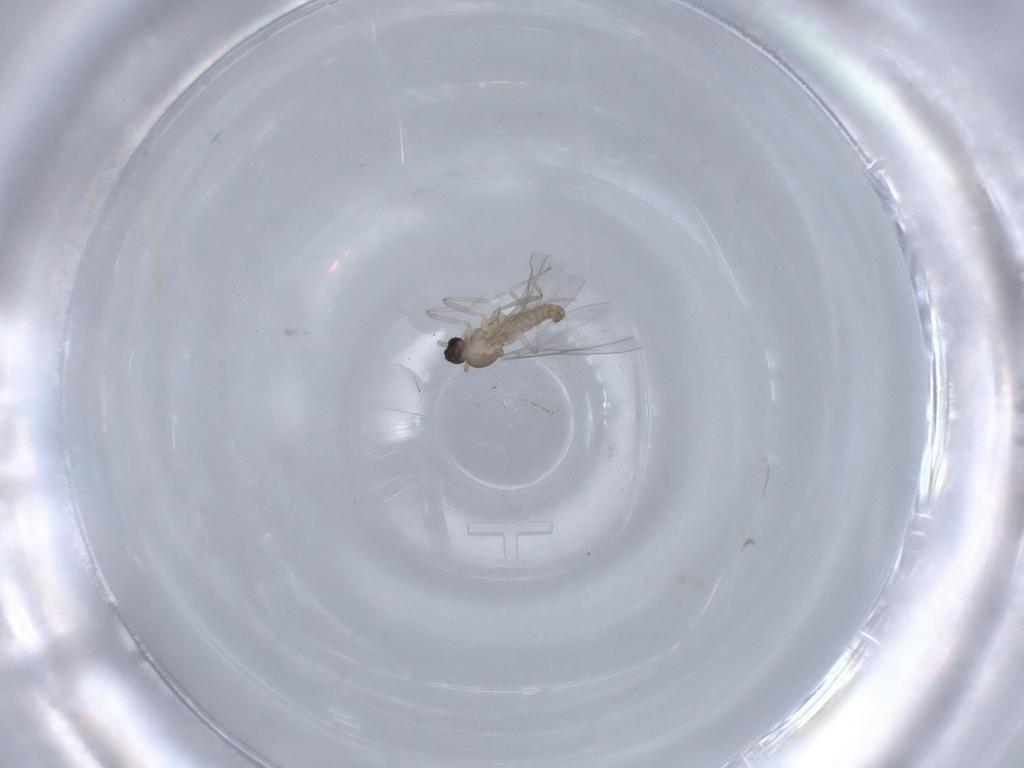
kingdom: Animalia
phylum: Arthropoda
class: Insecta
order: Diptera
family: Cecidomyiidae
